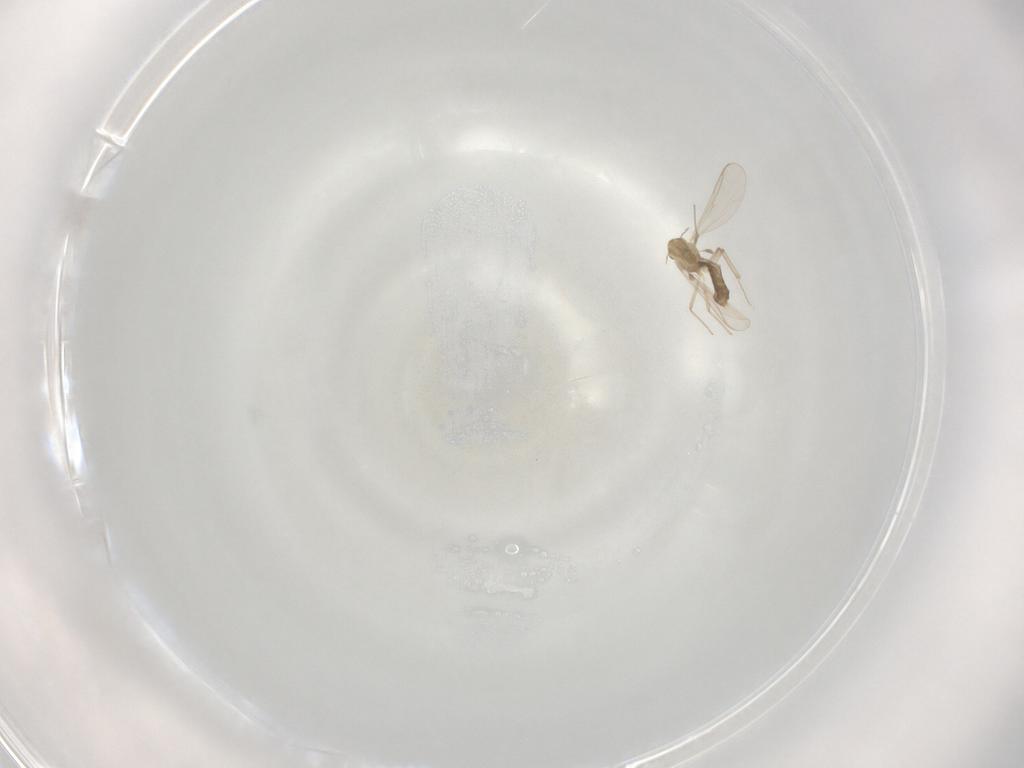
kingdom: Animalia
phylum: Arthropoda
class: Insecta
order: Diptera
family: Chironomidae
